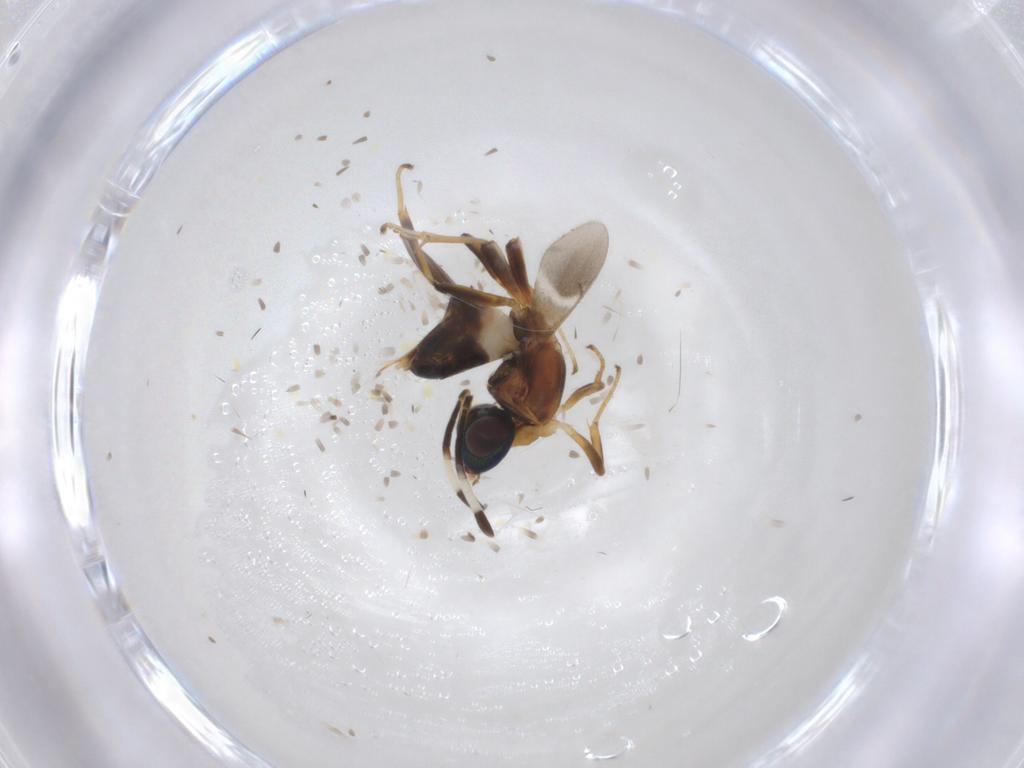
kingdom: Animalia
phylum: Arthropoda
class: Insecta
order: Hymenoptera
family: Eupelmidae
